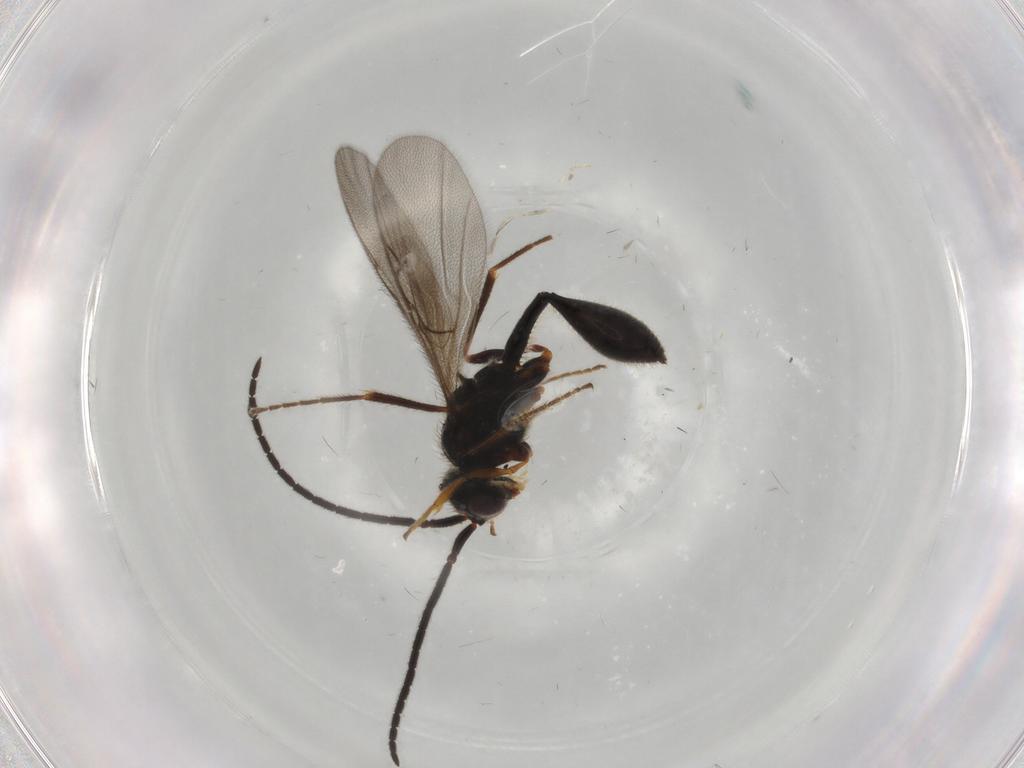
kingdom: Animalia
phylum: Arthropoda
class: Insecta
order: Hymenoptera
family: Diapriidae
